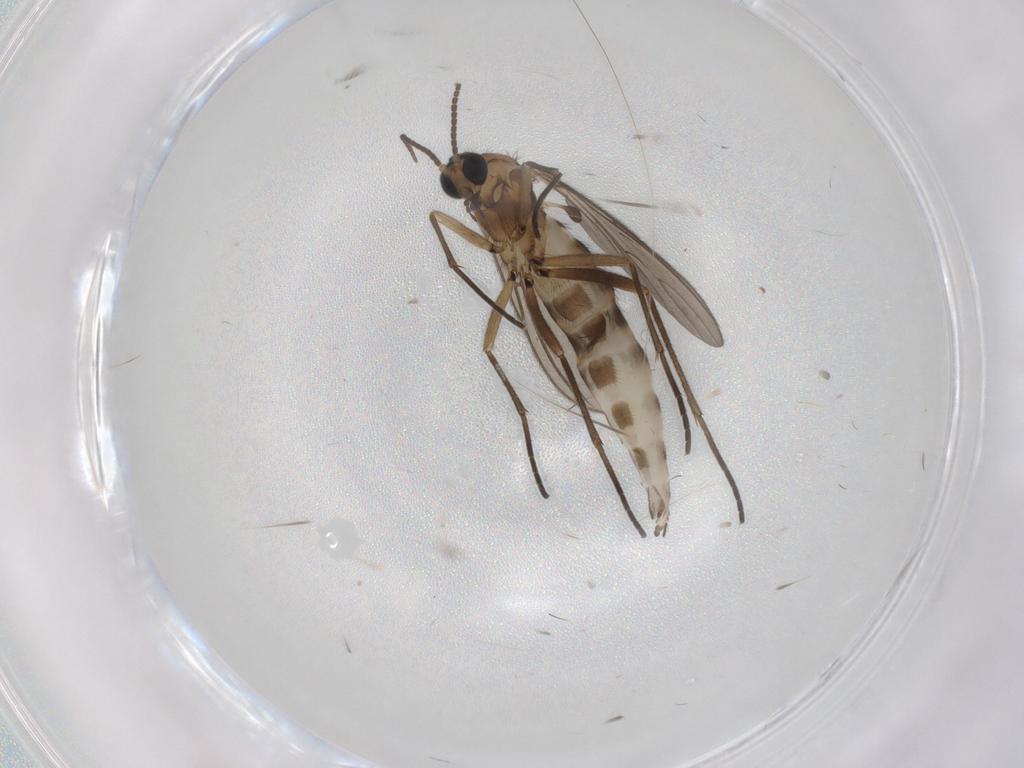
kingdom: Animalia
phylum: Arthropoda
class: Insecta
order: Diptera
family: Sciaridae
